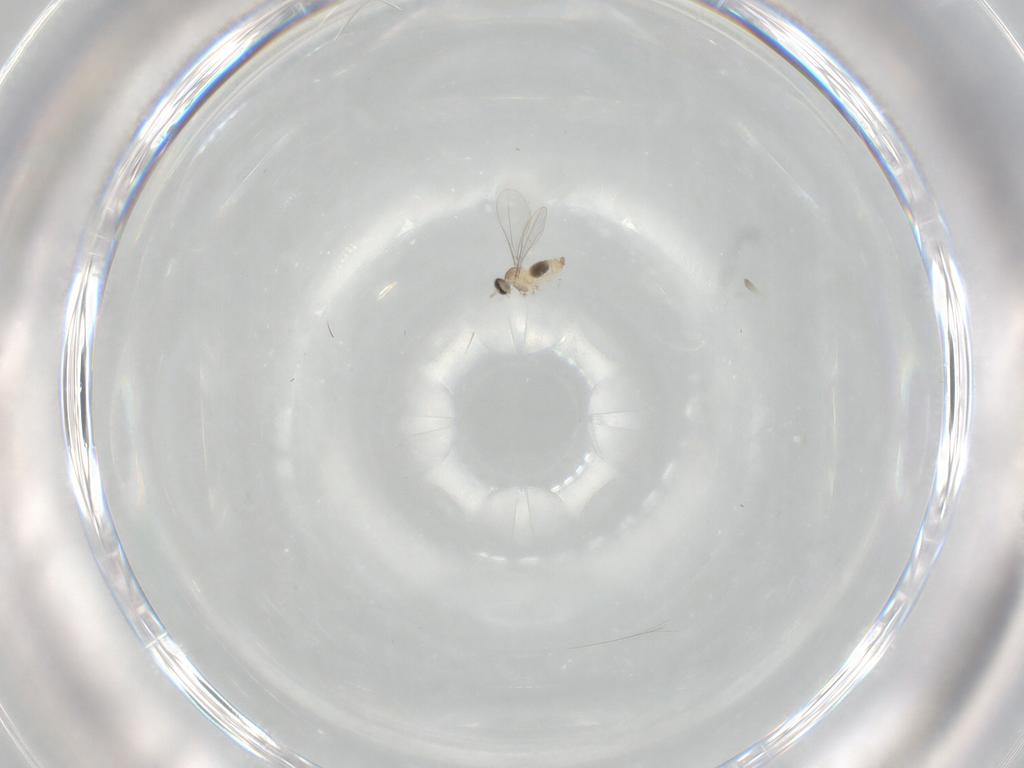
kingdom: Animalia
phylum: Arthropoda
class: Insecta
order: Diptera
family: Cecidomyiidae
